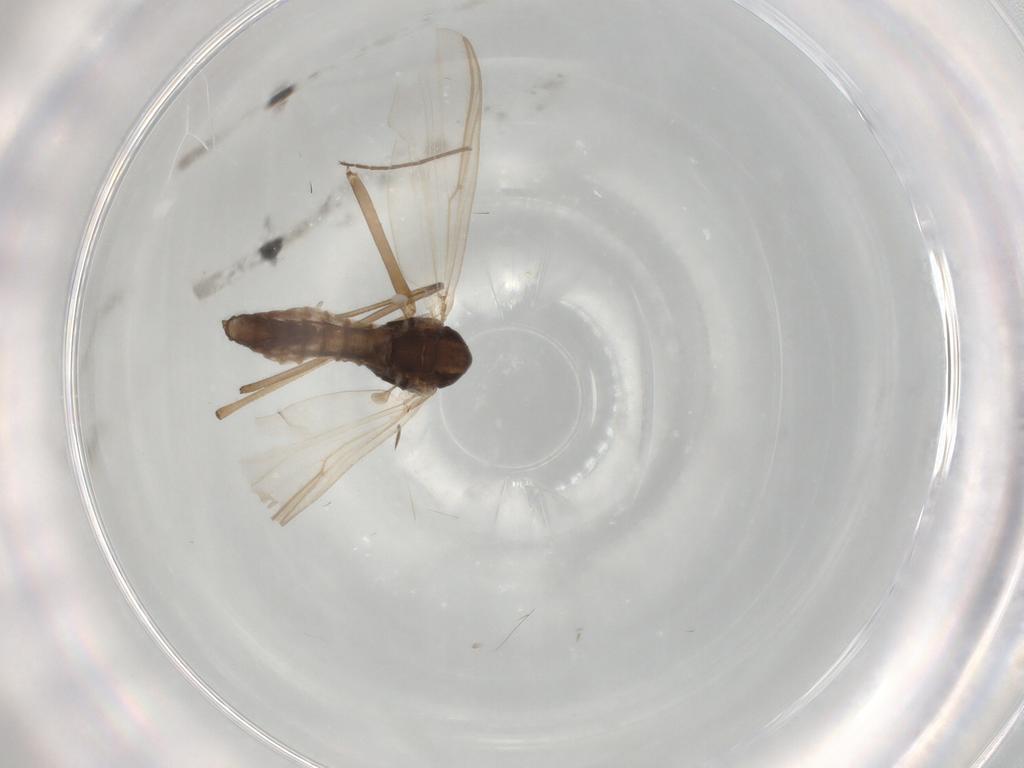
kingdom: Animalia
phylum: Arthropoda
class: Insecta
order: Diptera
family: Chironomidae
